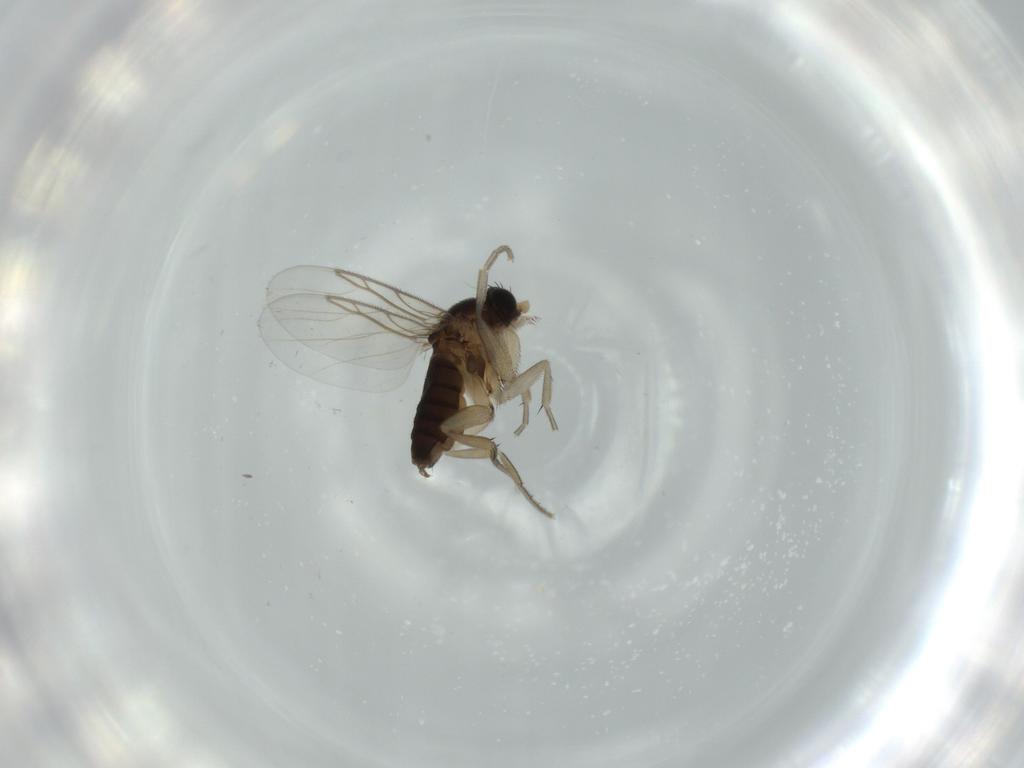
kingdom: Animalia
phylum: Arthropoda
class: Insecta
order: Diptera
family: Phoridae
